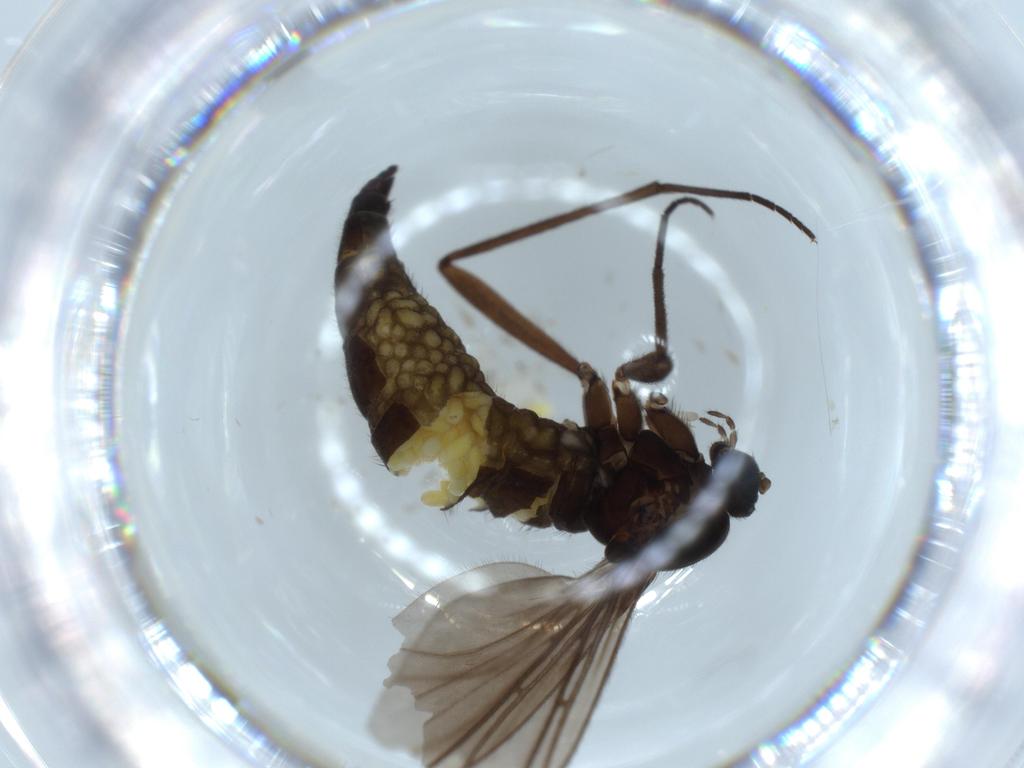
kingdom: Animalia
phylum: Arthropoda
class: Insecta
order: Diptera
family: Sciaridae
